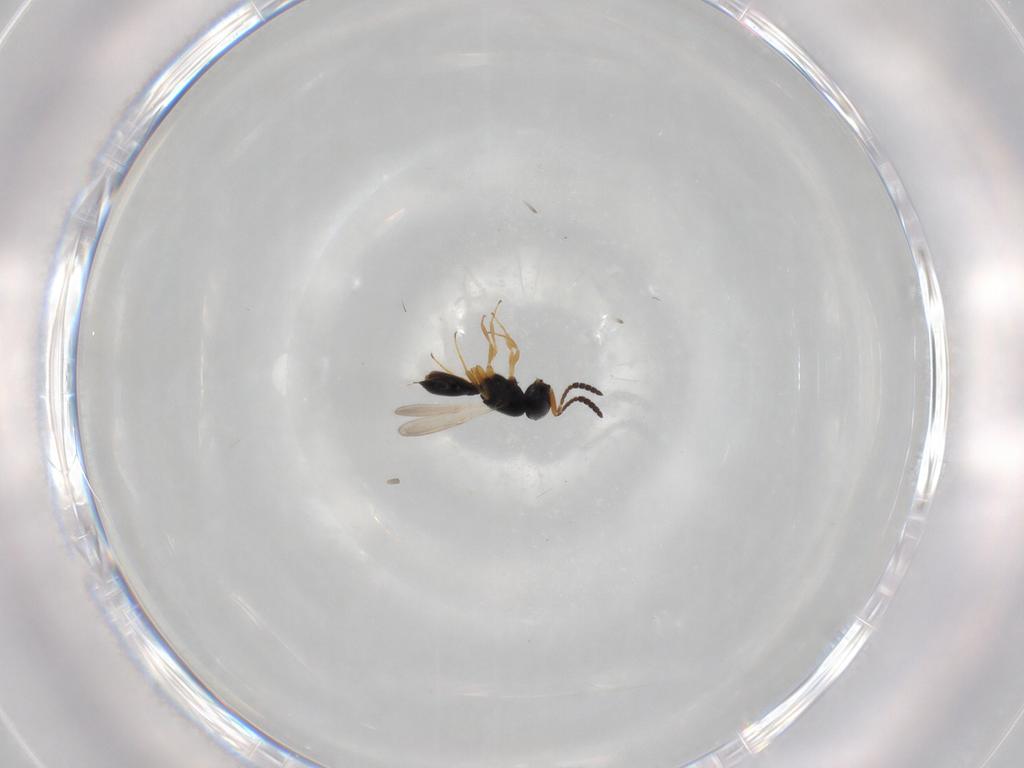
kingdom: Animalia
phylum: Arthropoda
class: Insecta
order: Hymenoptera
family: Scelionidae
